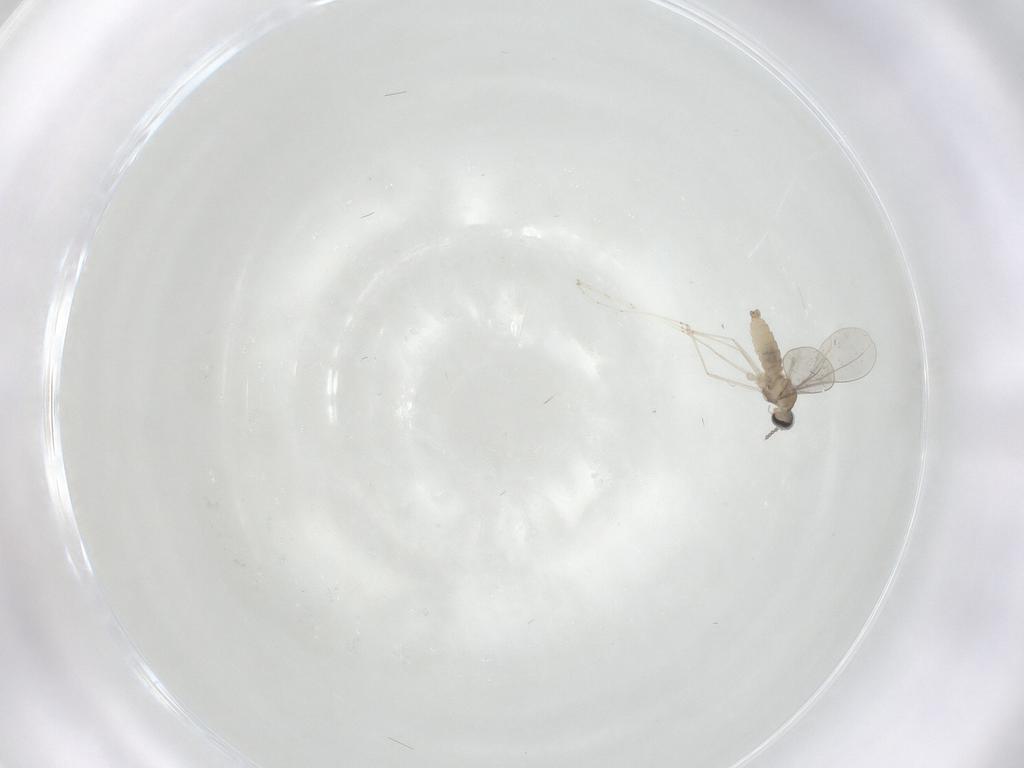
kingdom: Animalia
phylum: Arthropoda
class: Insecta
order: Diptera
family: Cecidomyiidae
